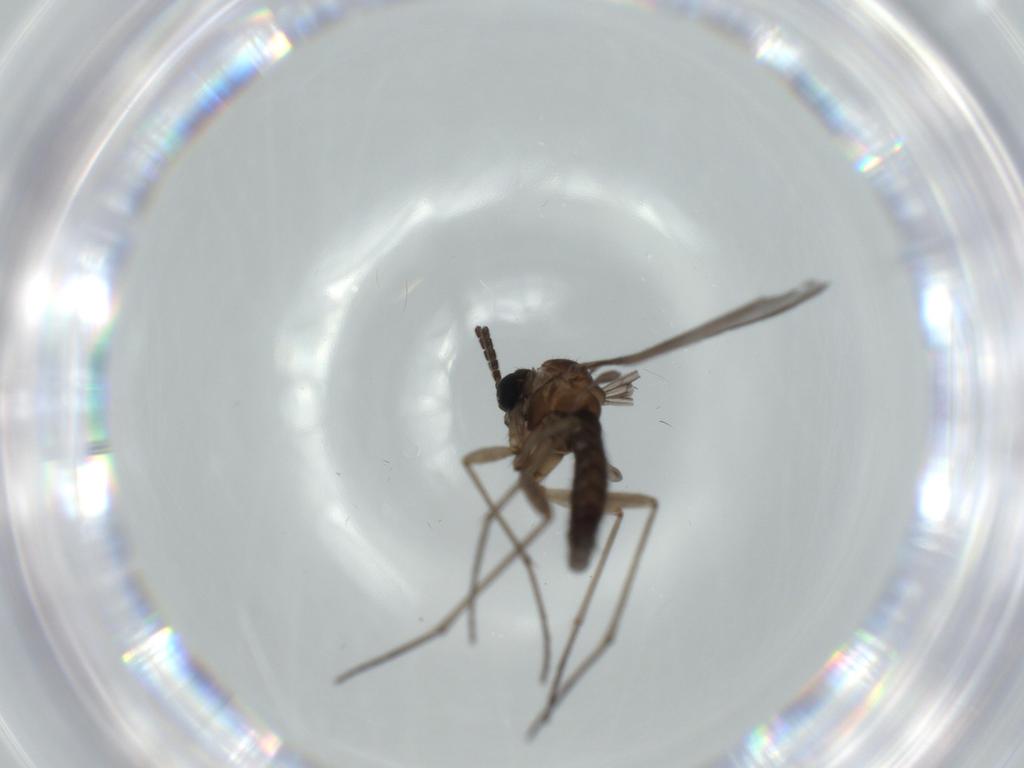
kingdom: Animalia
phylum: Arthropoda
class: Insecta
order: Diptera
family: Sciaridae
